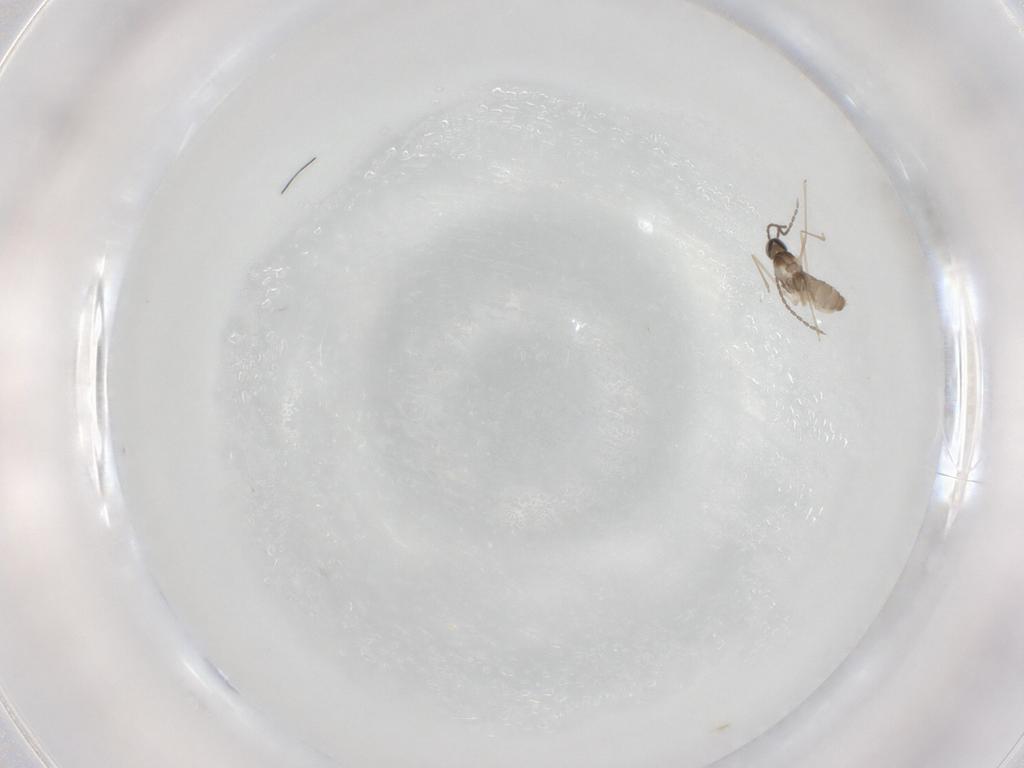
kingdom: Animalia
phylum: Arthropoda
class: Insecta
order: Diptera
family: Cecidomyiidae
